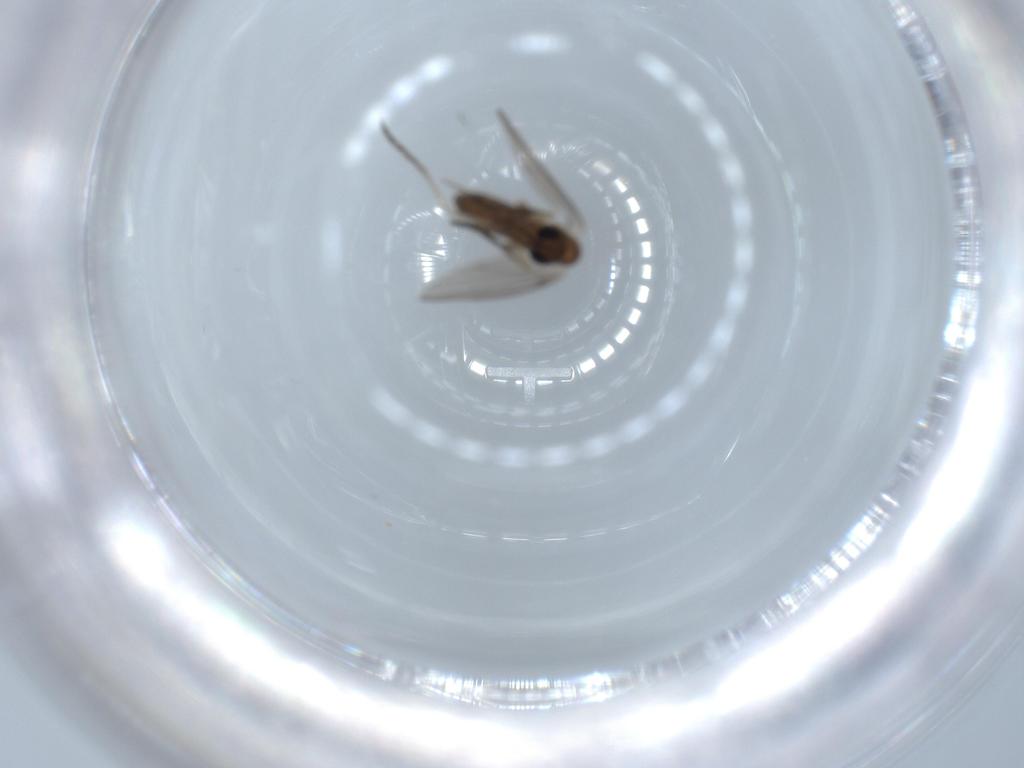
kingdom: Animalia
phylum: Arthropoda
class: Insecta
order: Diptera
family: Psychodidae
